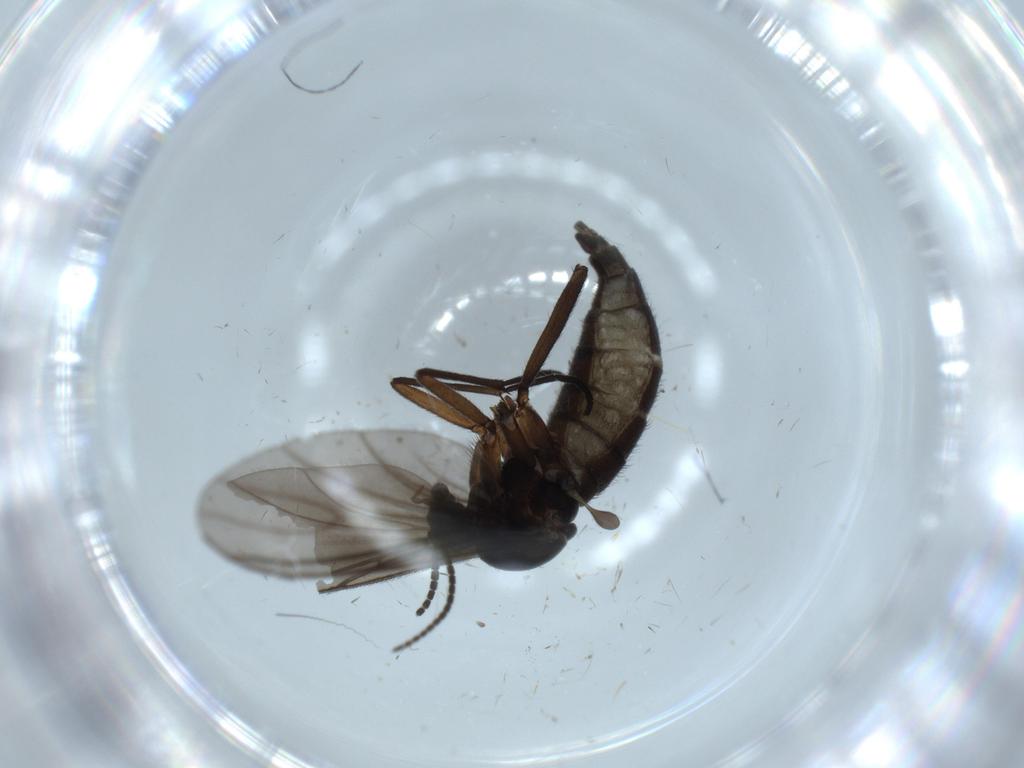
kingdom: Animalia
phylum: Arthropoda
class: Insecta
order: Diptera
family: Sciaridae
